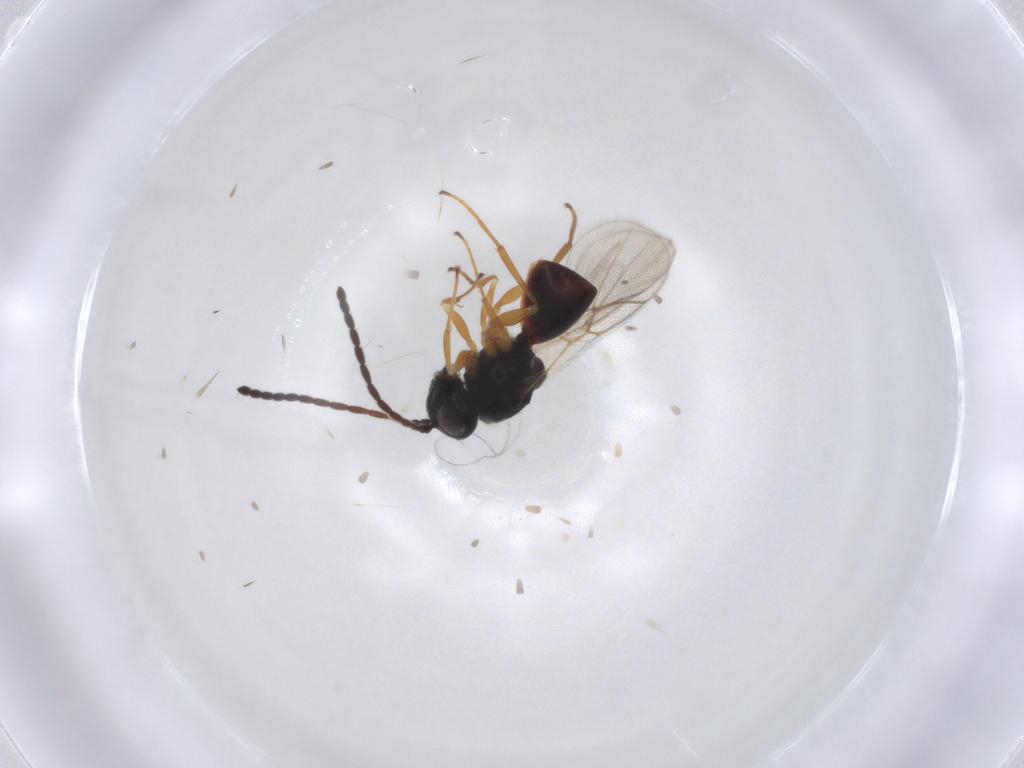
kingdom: Animalia
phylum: Arthropoda
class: Insecta
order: Hymenoptera
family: Figitidae
